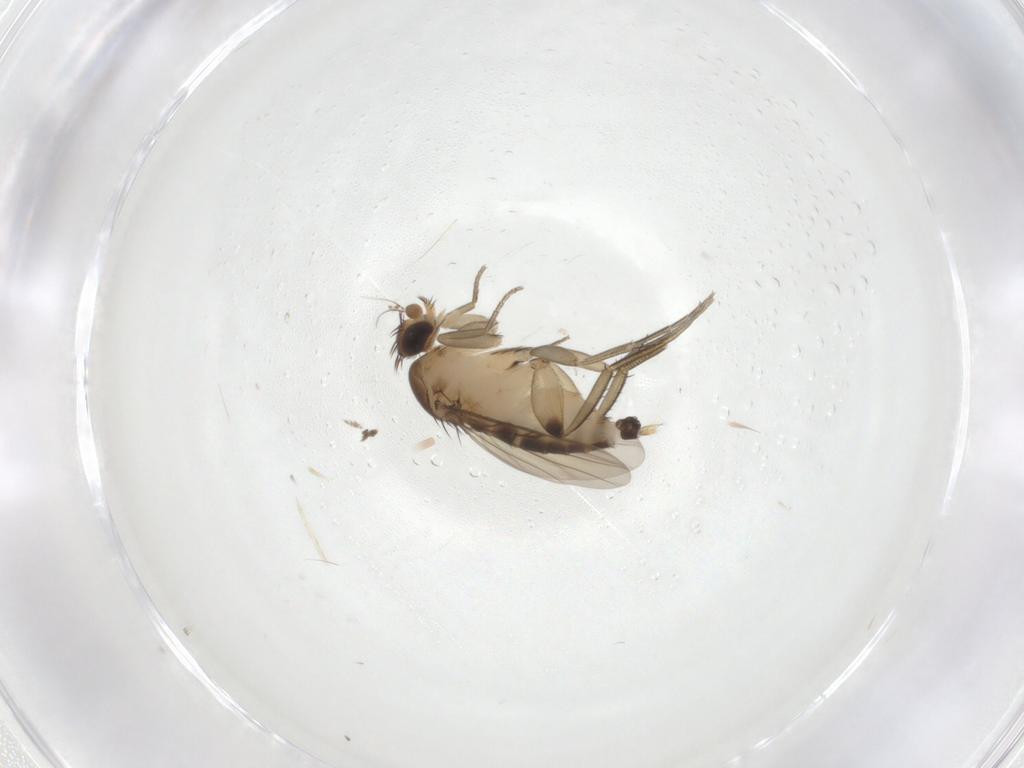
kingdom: Animalia
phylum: Arthropoda
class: Insecta
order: Diptera
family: Cecidomyiidae
